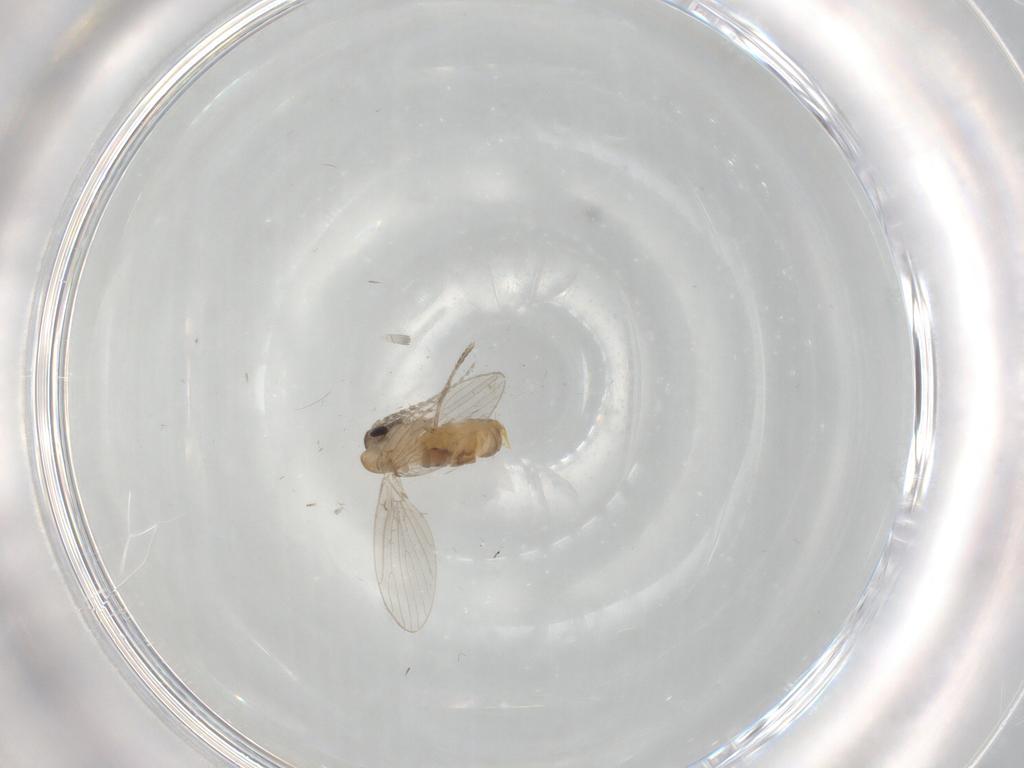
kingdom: Animalia
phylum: Arthropoda
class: Insecta
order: Diptera
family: Psychodidae
